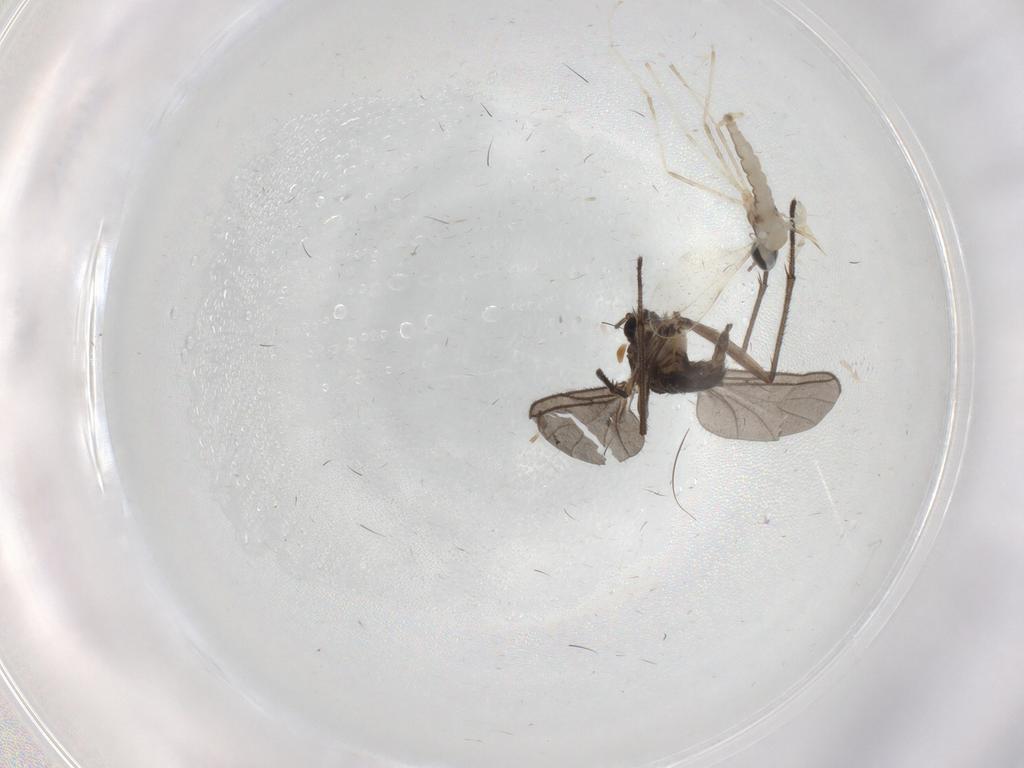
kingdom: Animalia
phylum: Arthropoda
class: Insecta
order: Diptera
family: Sciaridae
